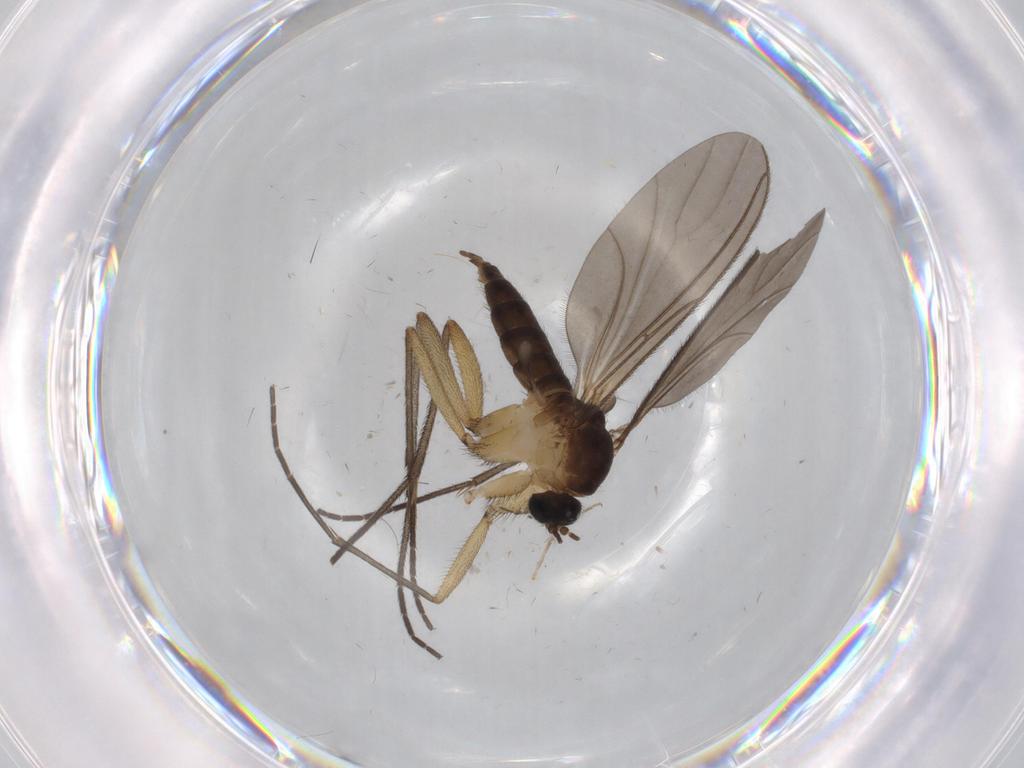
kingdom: Animalia
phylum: Arthropoda
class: Insecta
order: Diptera
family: Sciaridae
